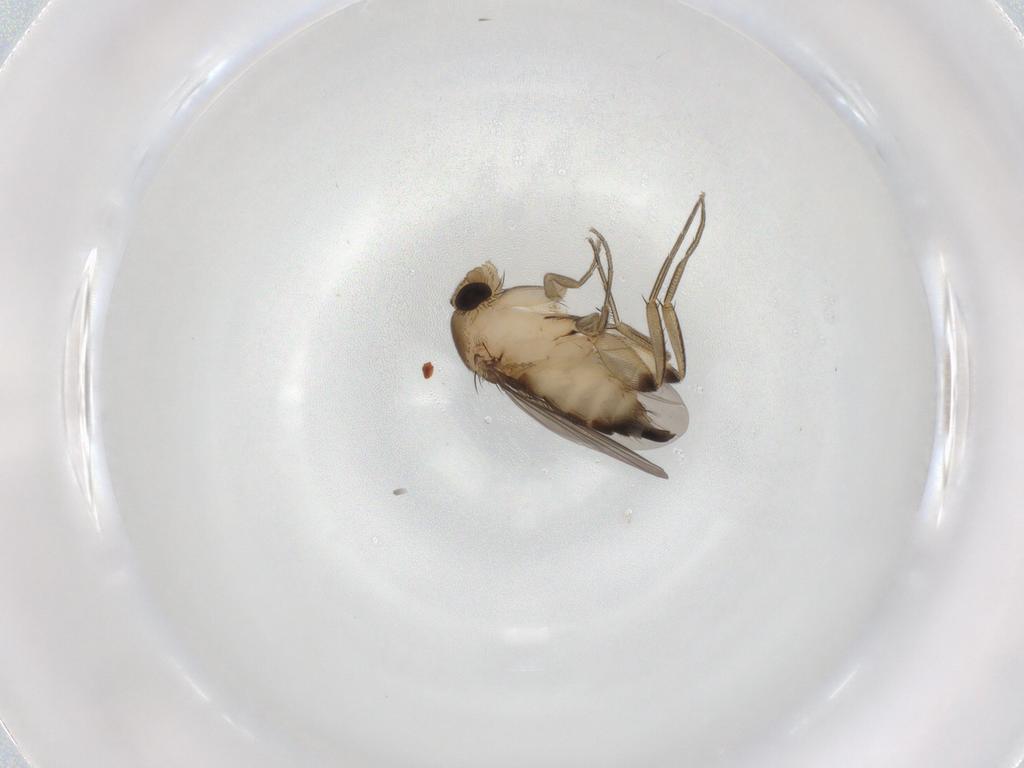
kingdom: Animalia
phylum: Arthropoda
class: Insecta
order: Diptera
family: Phoridae
